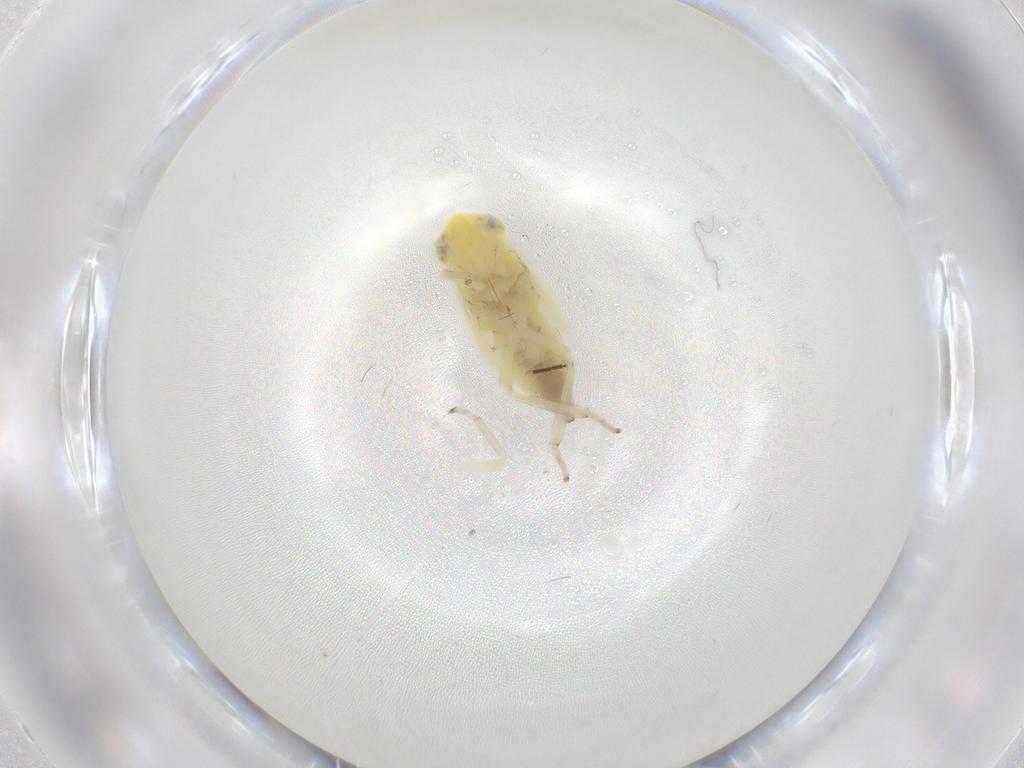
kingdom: Animalia
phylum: Arthropoda
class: Insecta
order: Hemiptera
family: Cicadellidae
